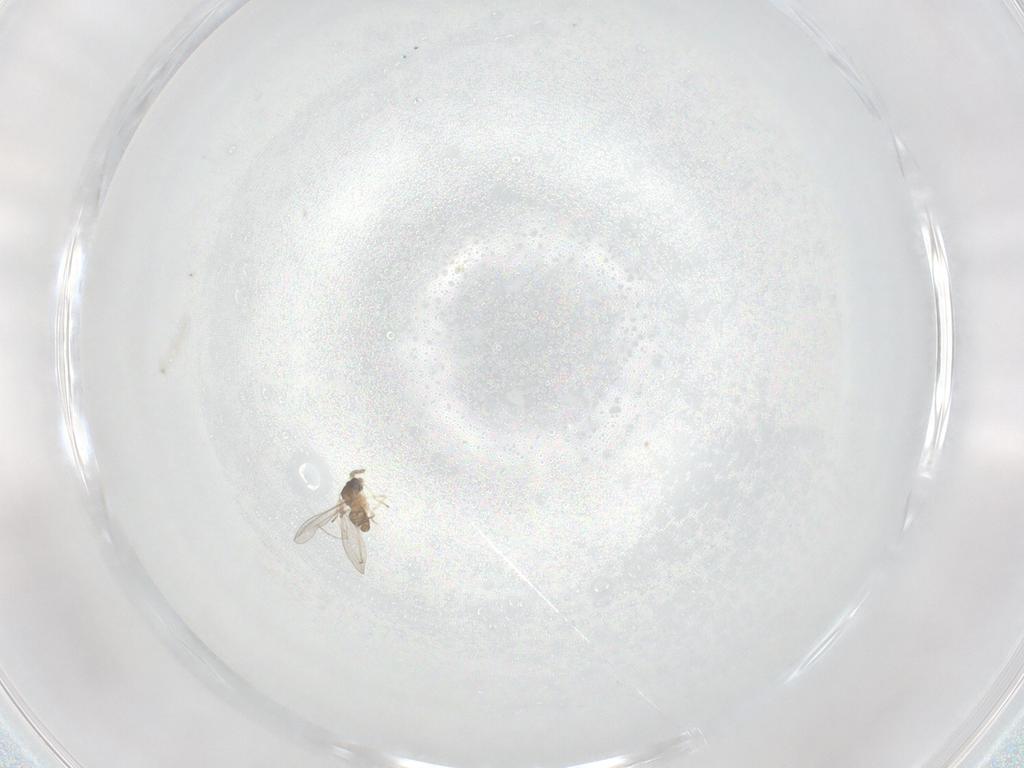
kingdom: Animalia
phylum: Arthropoda
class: Insecta
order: Diptera
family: Cecidomyiidae
